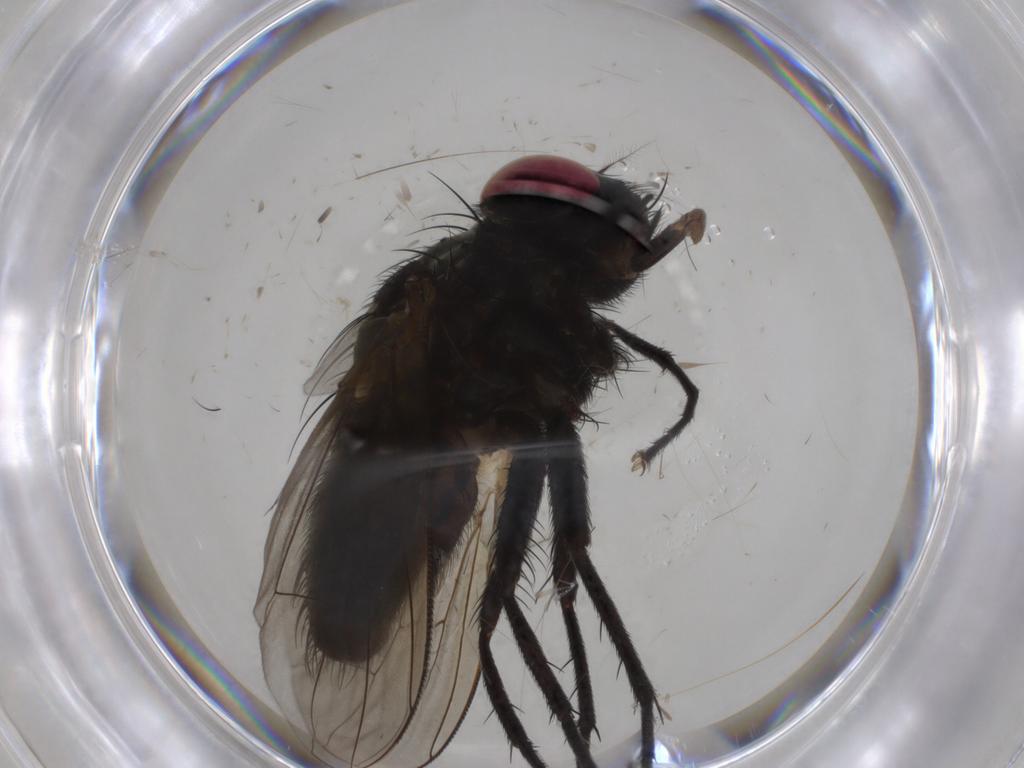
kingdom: Animalia
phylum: Arthropoda
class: Insecta
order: Diptera
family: Muscidae
